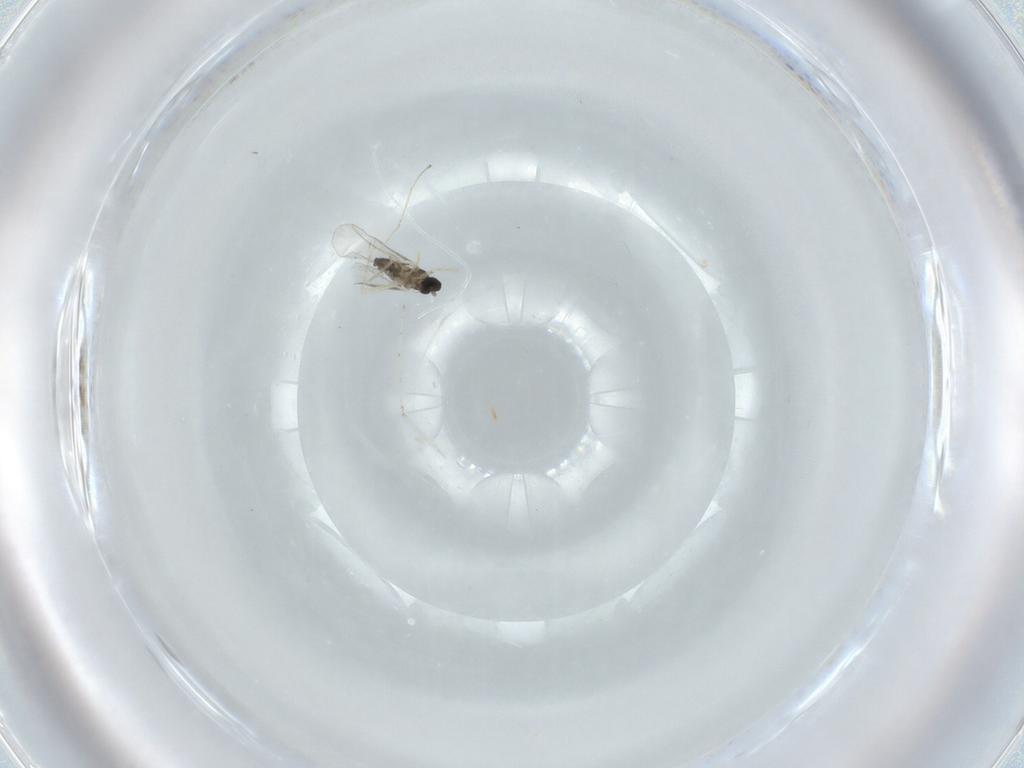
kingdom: Animalia
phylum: Arthropoda
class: Insecta
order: Diptera
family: Cecidomyiidae
